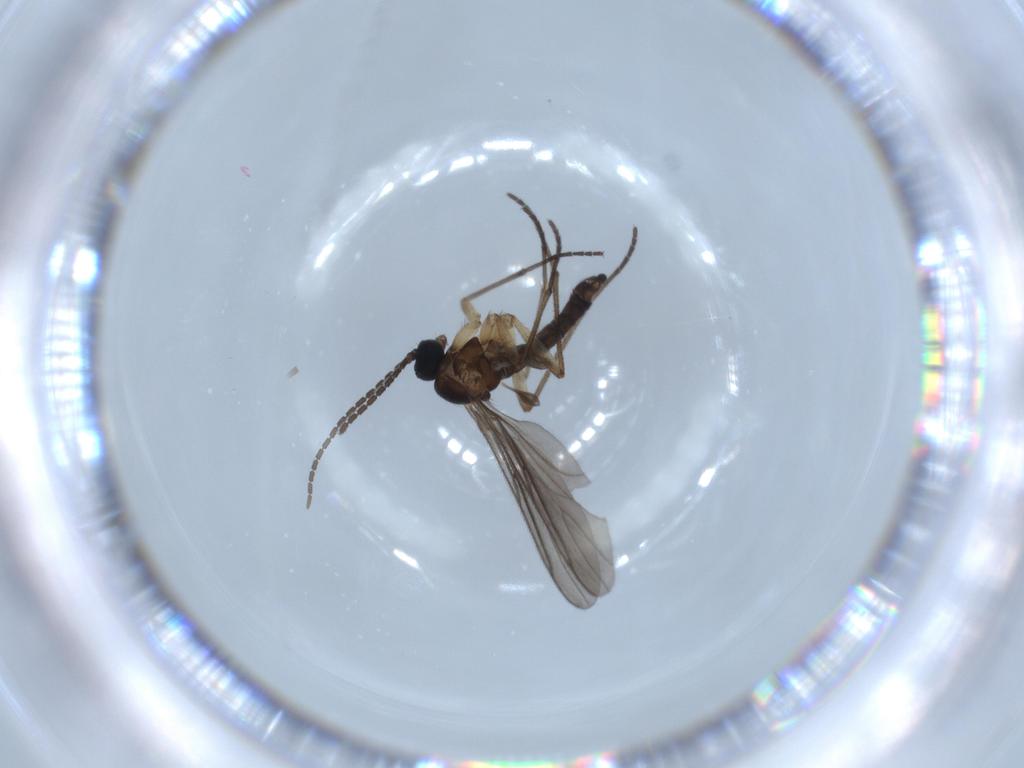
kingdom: Animalia
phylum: Arthropoda
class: Insecta
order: Diptera
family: Sciaridae
